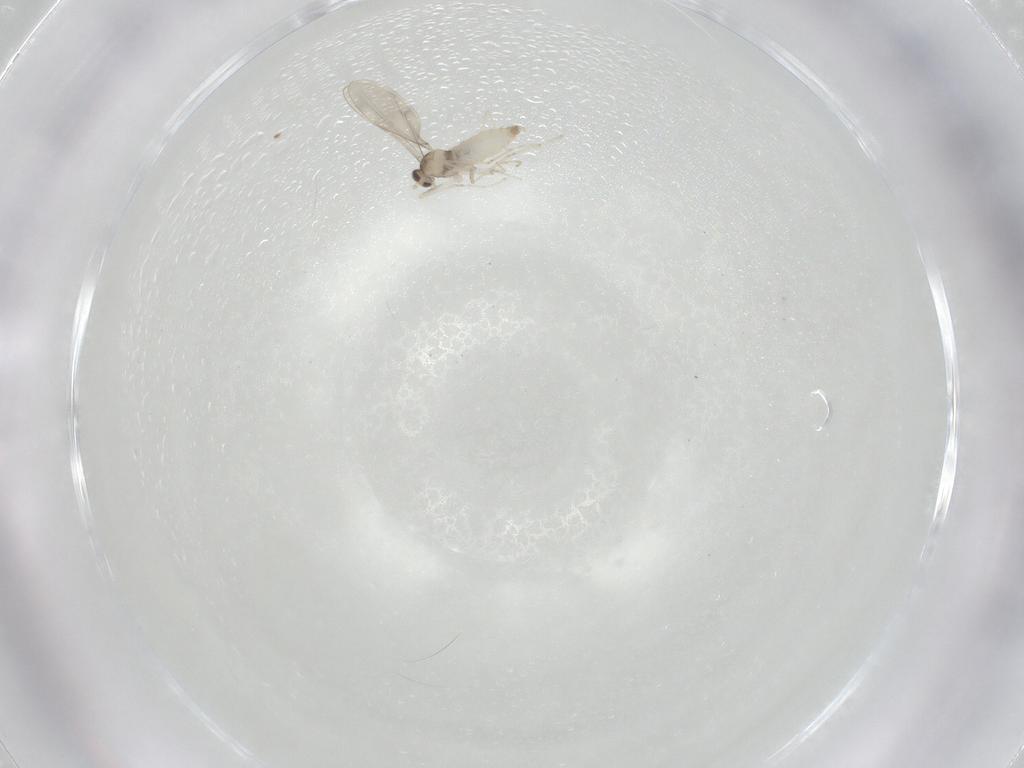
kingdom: Animalia
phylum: Arthropoda
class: Insecta
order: Diptera
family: Cecidomyiidae
